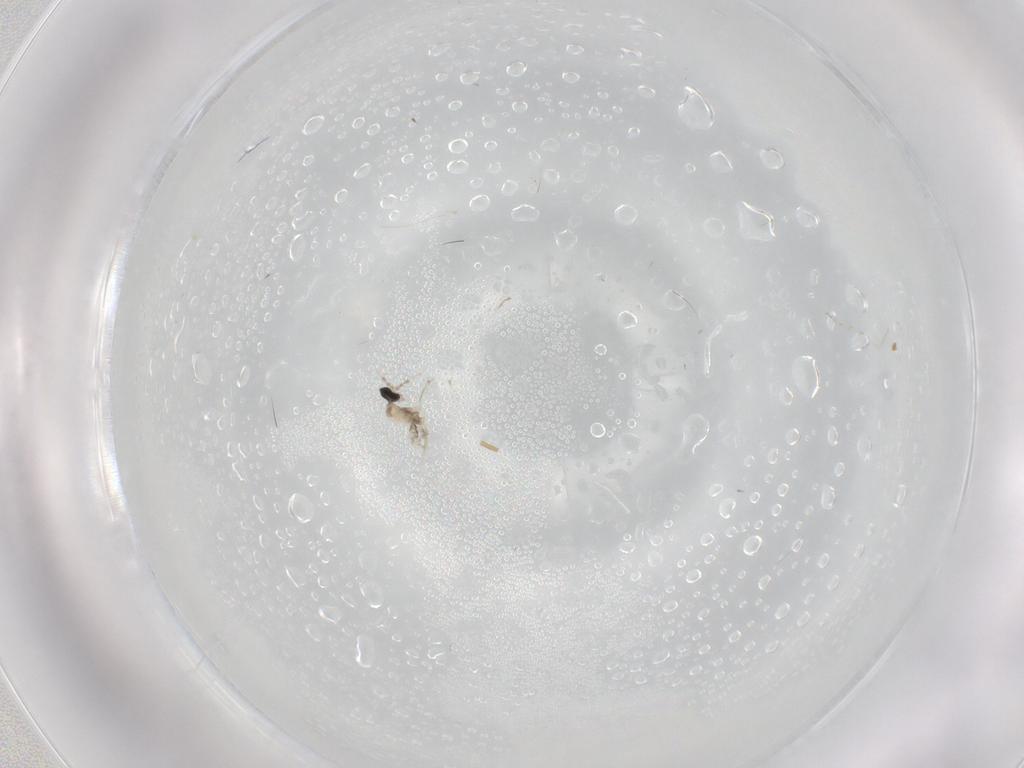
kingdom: Animalia
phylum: Arthropoda
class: Insecta
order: Diptera
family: Cecidomyiidae
